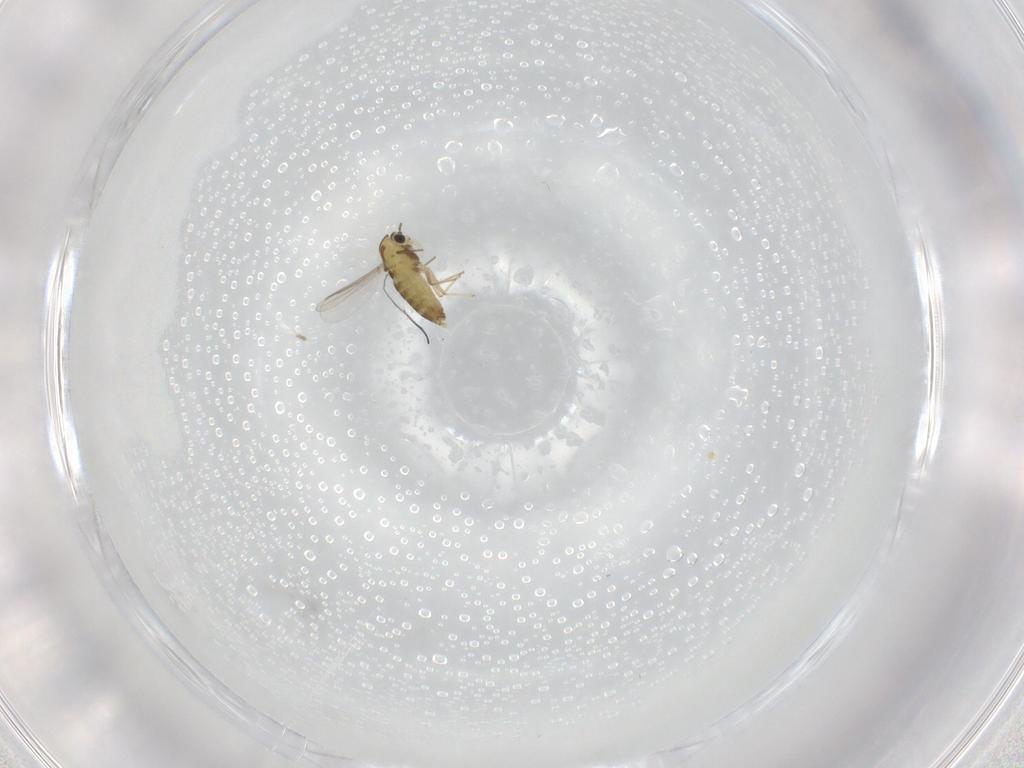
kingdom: Animalia
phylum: Arthropoda
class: Insecta
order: Diptera
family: Chironomidae
